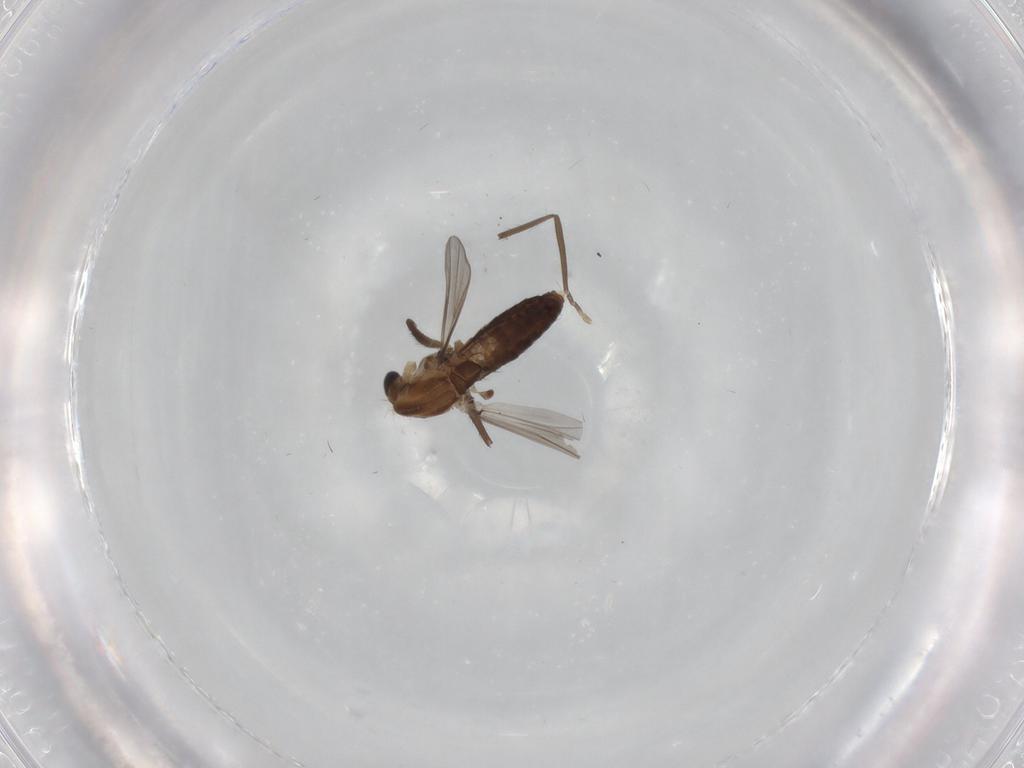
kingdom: Animalia
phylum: Arthropoda
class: Insecta
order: Diptera
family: Chironomidae
